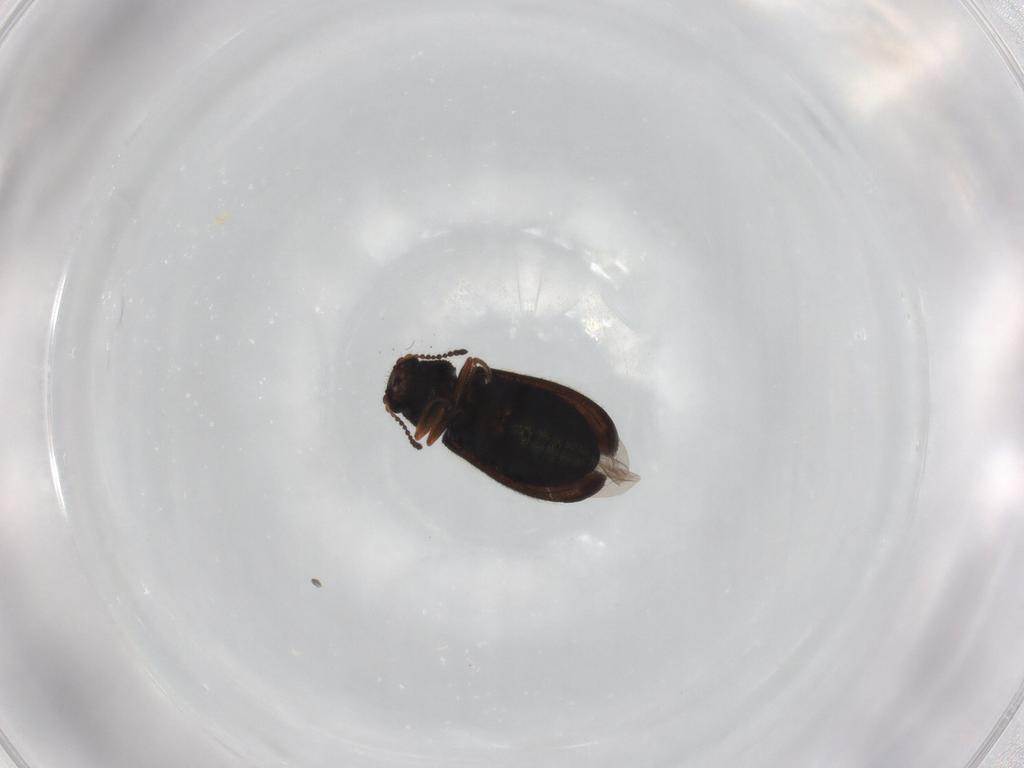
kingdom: Animalia
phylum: Arthropoda
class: Insecta
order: Coleoptera
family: Melyridae
